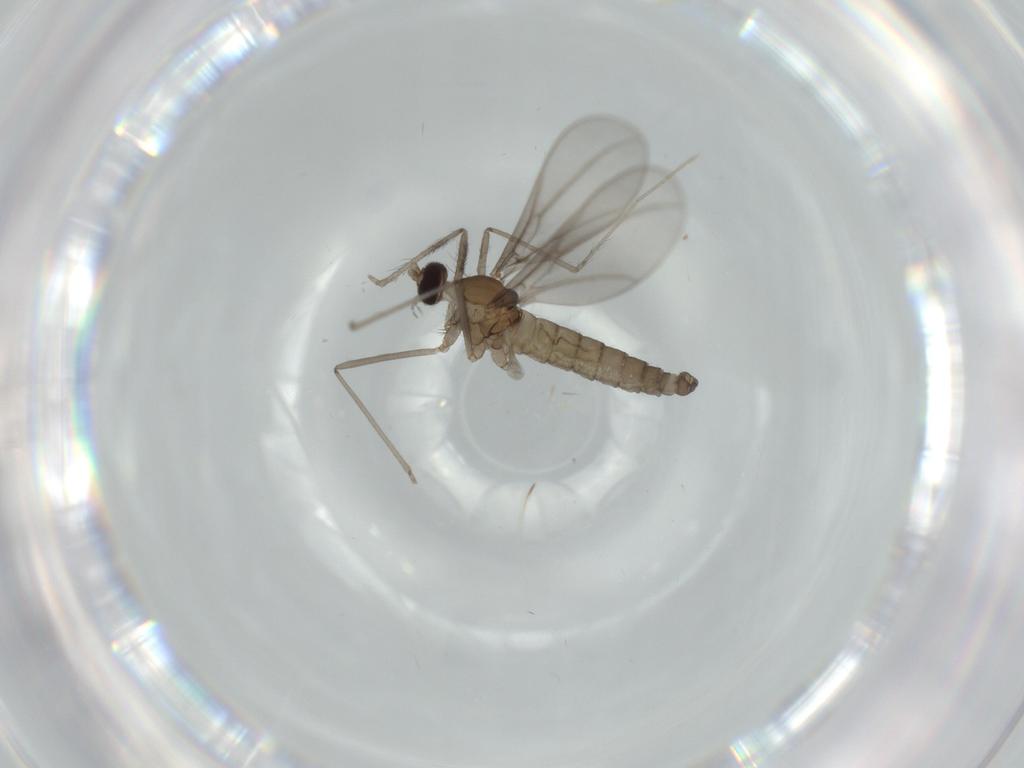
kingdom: Animalia
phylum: Arthropoda
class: Insecta
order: Diptera
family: Cecidomyiidae
